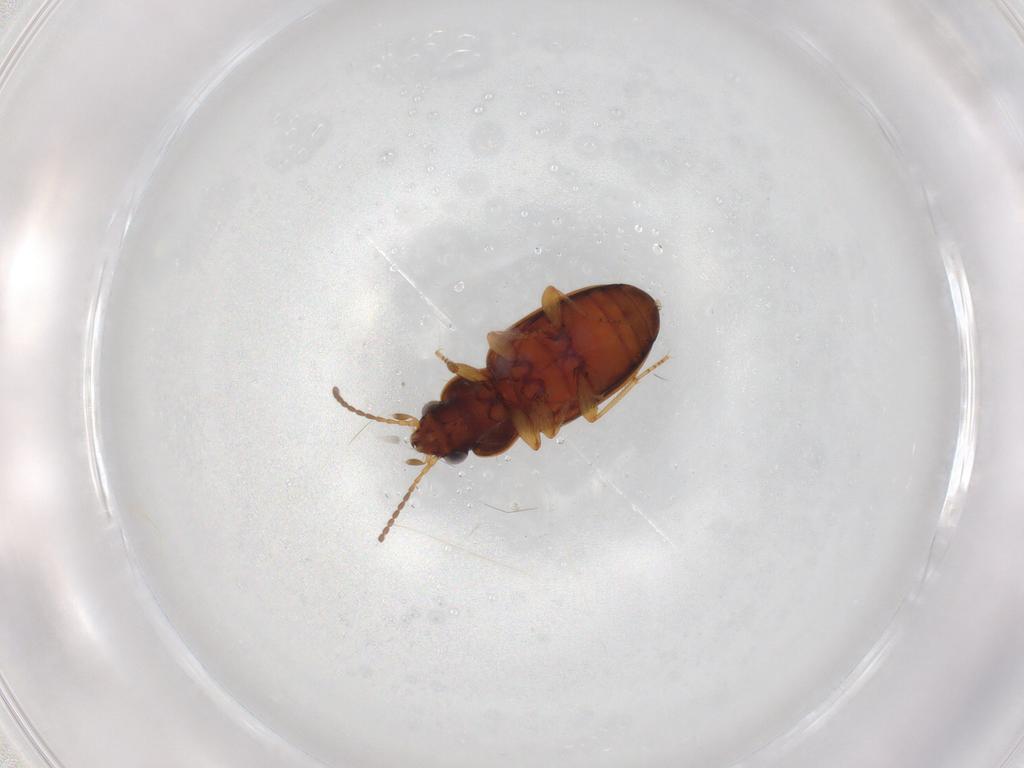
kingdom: Animalia
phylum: Arthropoda
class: Insecta
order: Coleoptera
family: Carabidae
